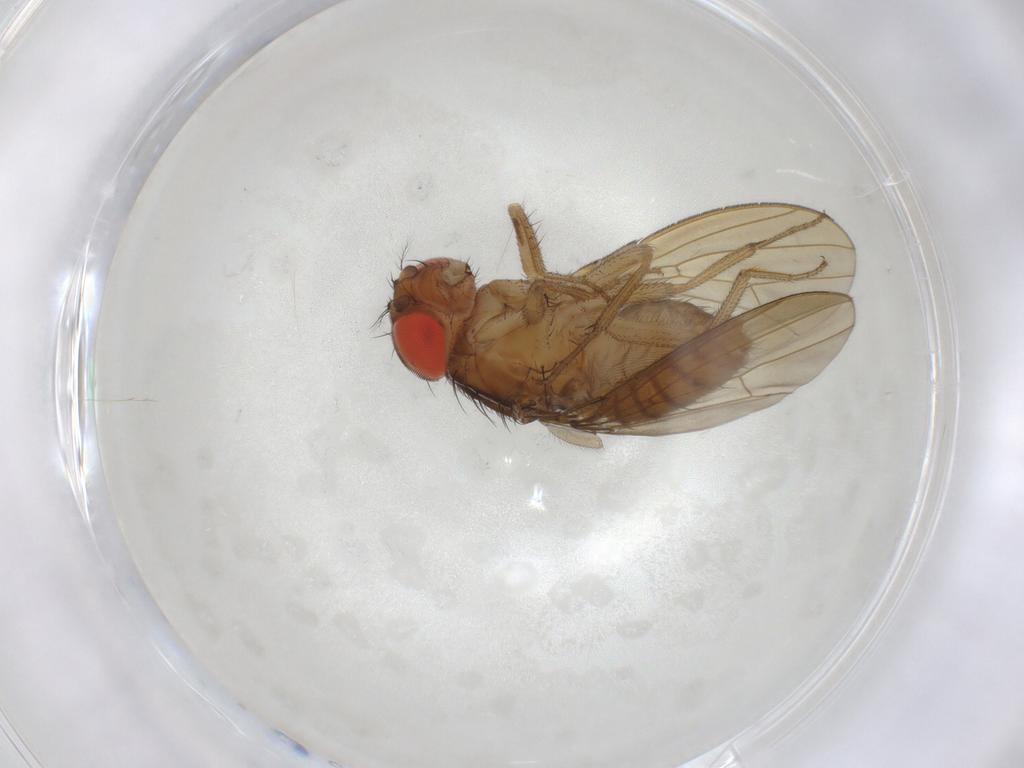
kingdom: Animalia
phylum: Arthropoda
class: Insecta
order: Diptera
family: Drosophilidae
